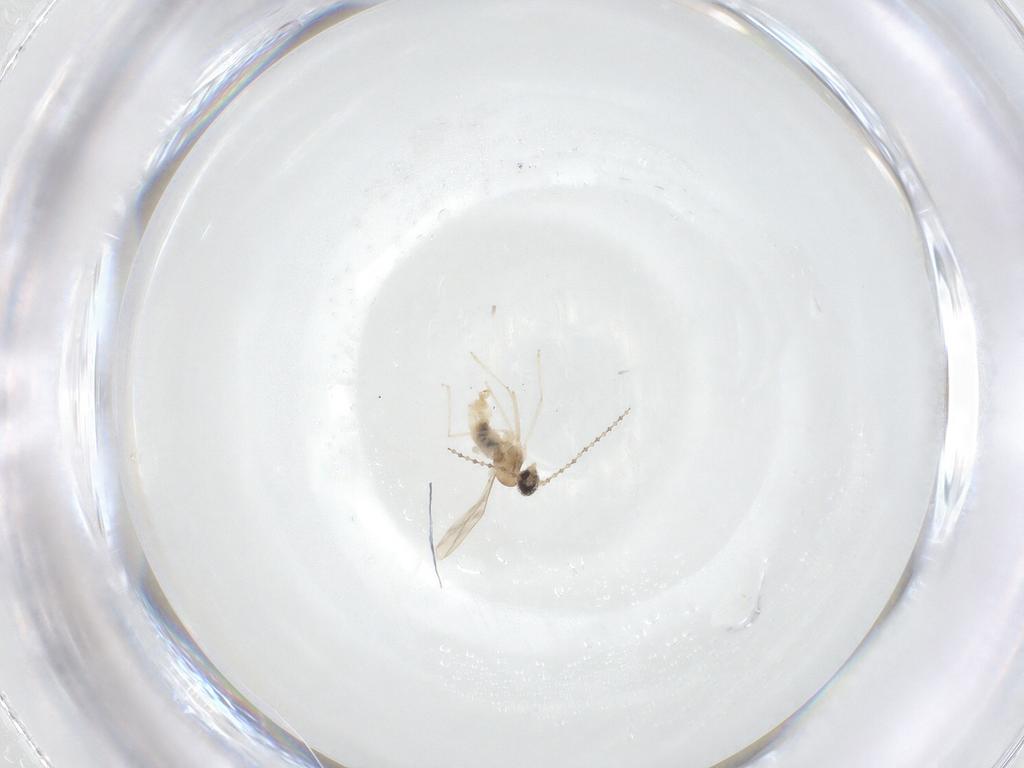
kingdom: Animalia
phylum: Arthropoda
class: Insecta
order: Diptera
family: Cecidomyiidae
